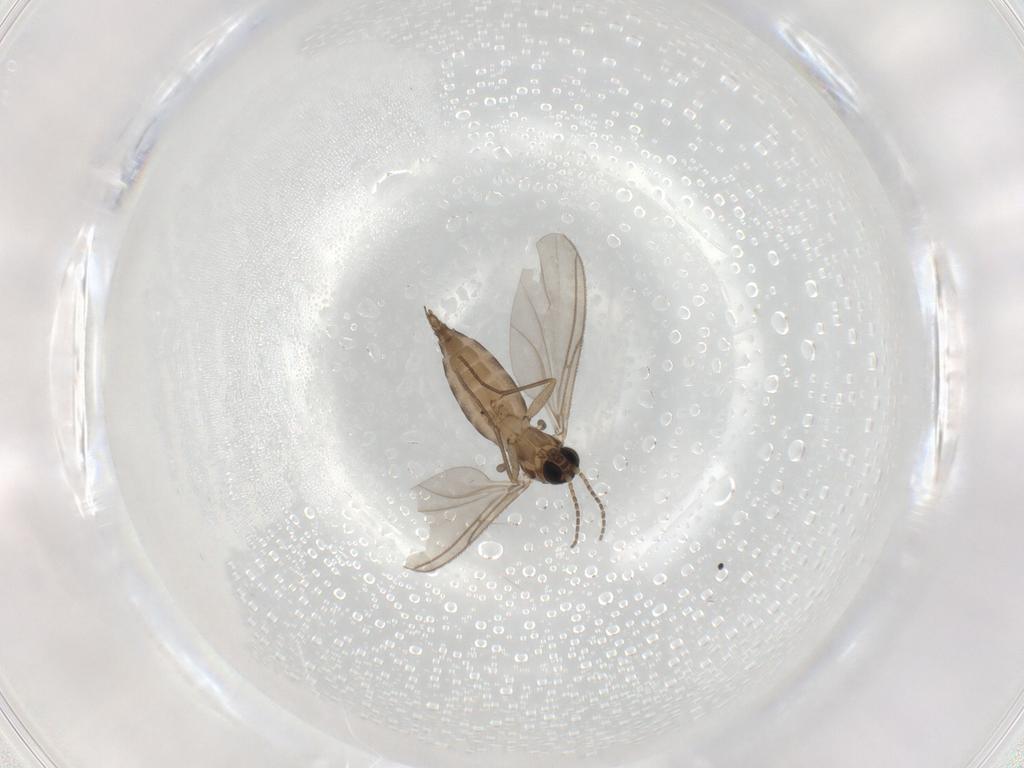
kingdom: Animalia
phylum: Arthropoda
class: Insecta
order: Diptera
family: Sciaridae
